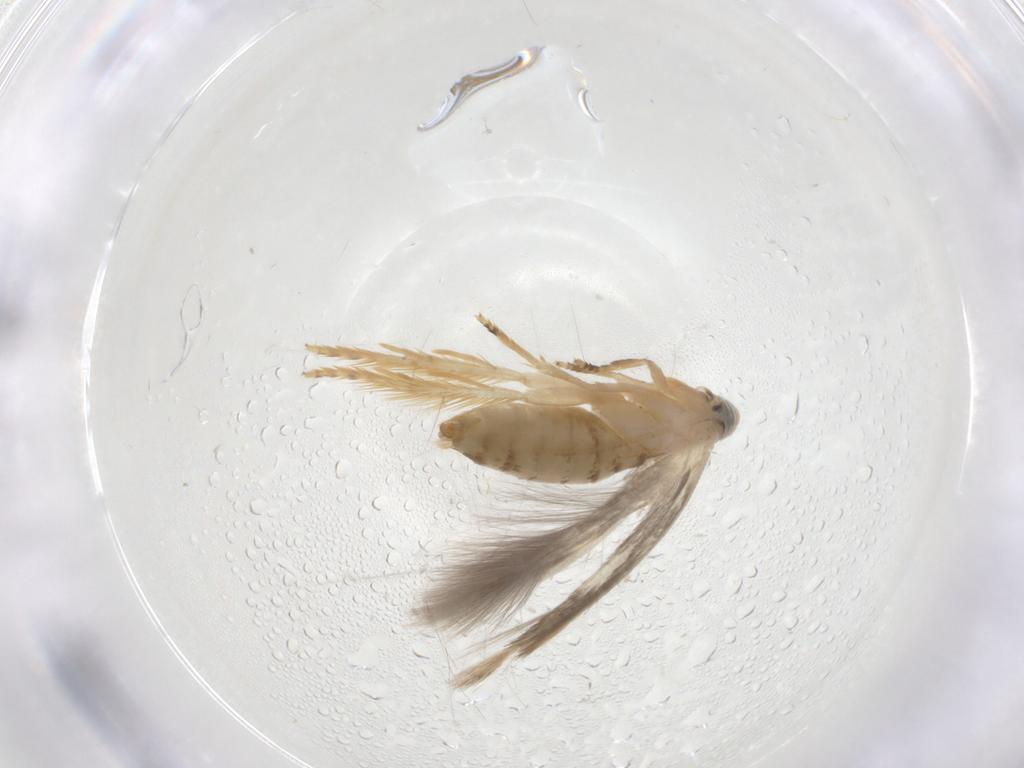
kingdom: Animalia
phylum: Arthropoda
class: Insecta
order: Lepidoptera
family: Opostegidae
